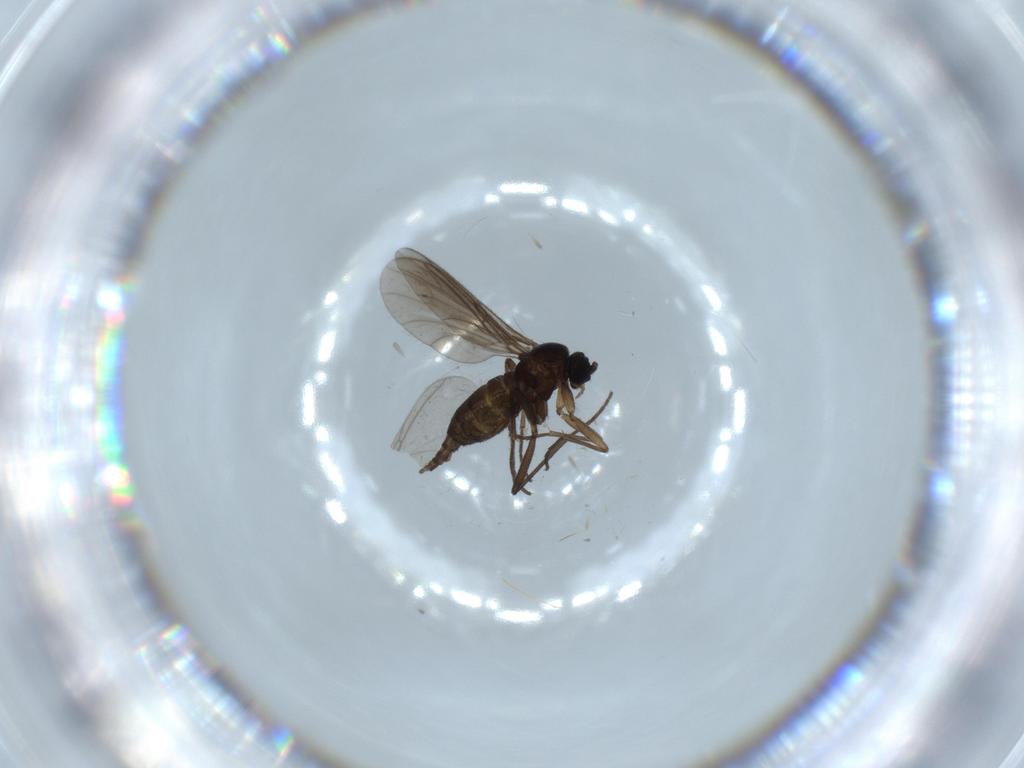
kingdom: Animalia
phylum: Arthropoda
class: Insecta
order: Diptera
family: Sciaridae
